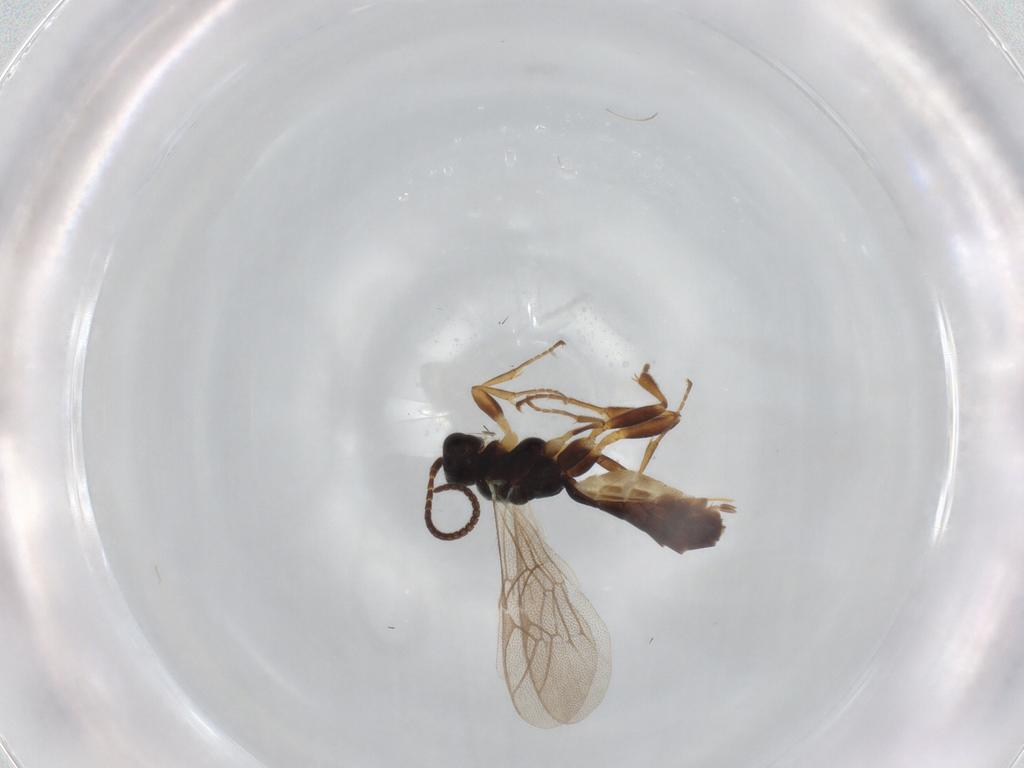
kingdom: Animalia
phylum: Arthropoda
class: Insecta
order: Hymenoptera
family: Ichneumonidae
